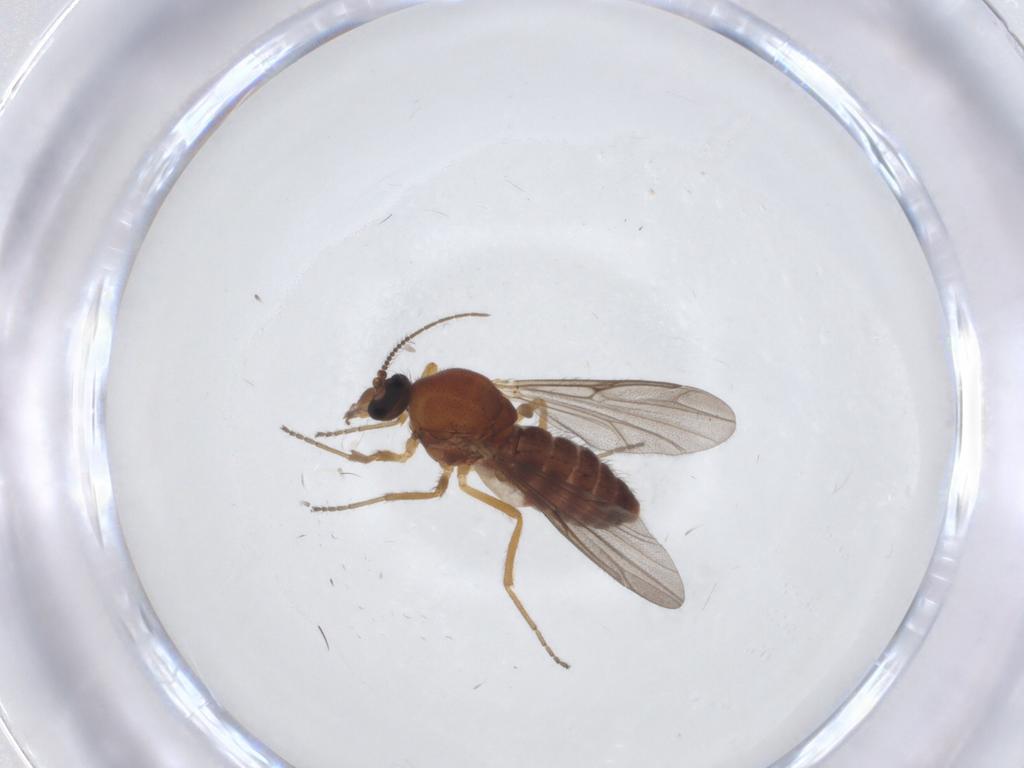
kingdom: Animalia
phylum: Arthropoda
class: Insecta
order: Diptera
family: Ceratopogonidae
